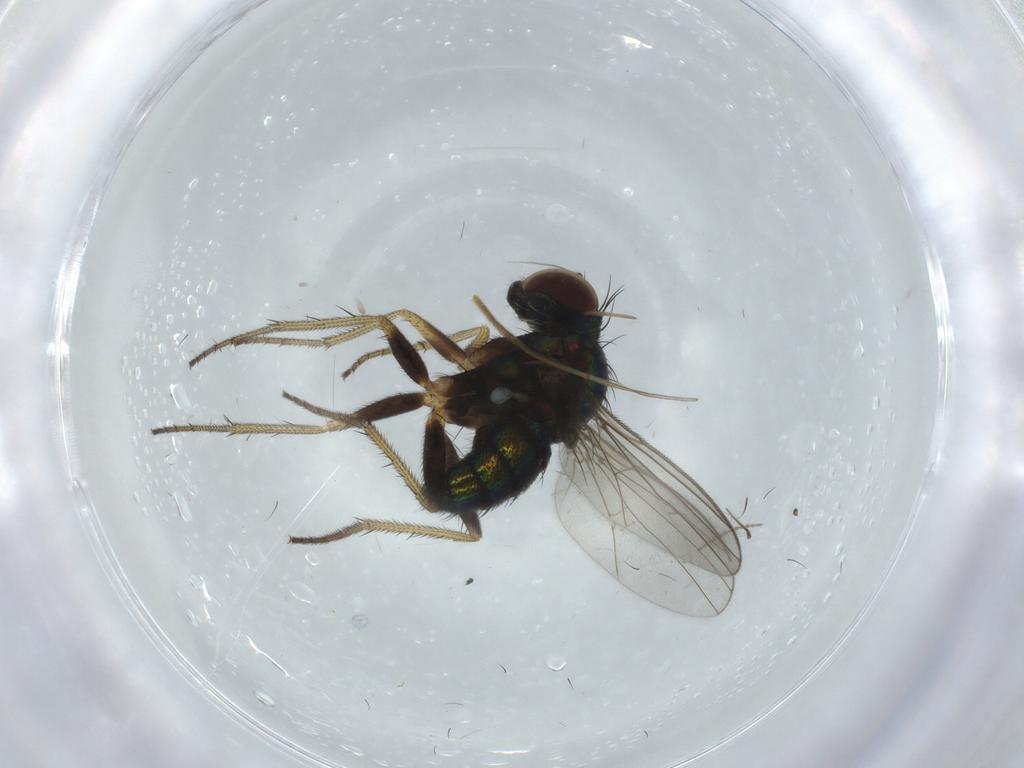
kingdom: Animalia
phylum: Arthropoda
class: Insecta
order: Diptera
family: Chironomidae
